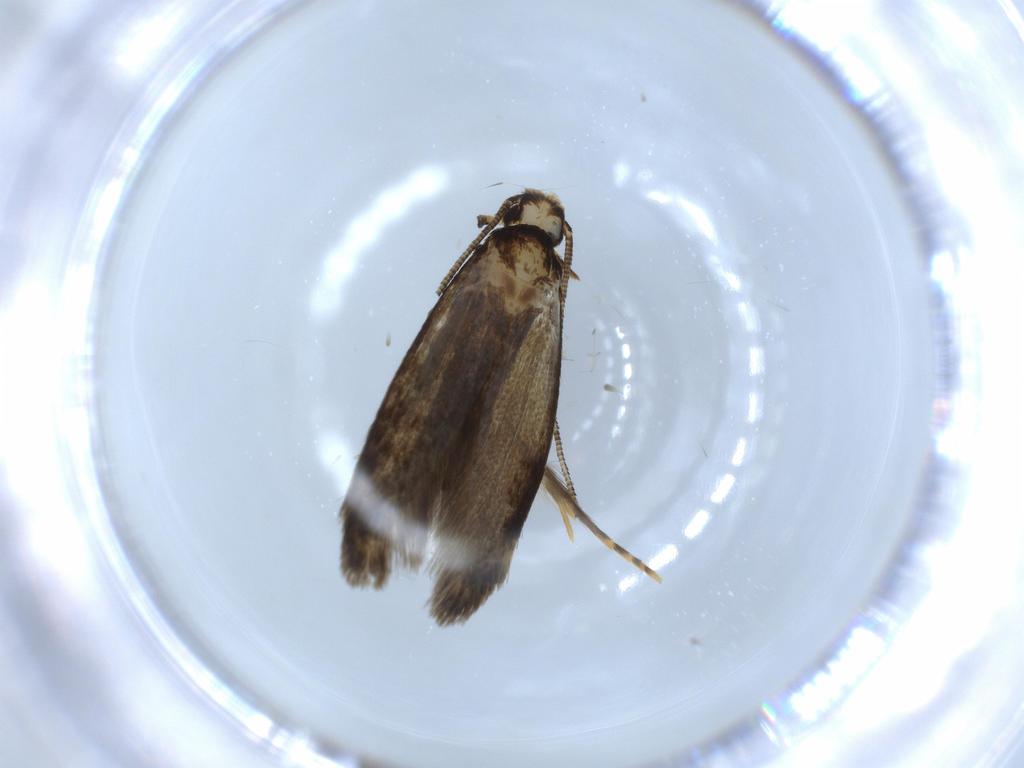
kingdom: Animalia
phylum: Arthropoda
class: Insecta
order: Lepidoptera
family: Tineidae
